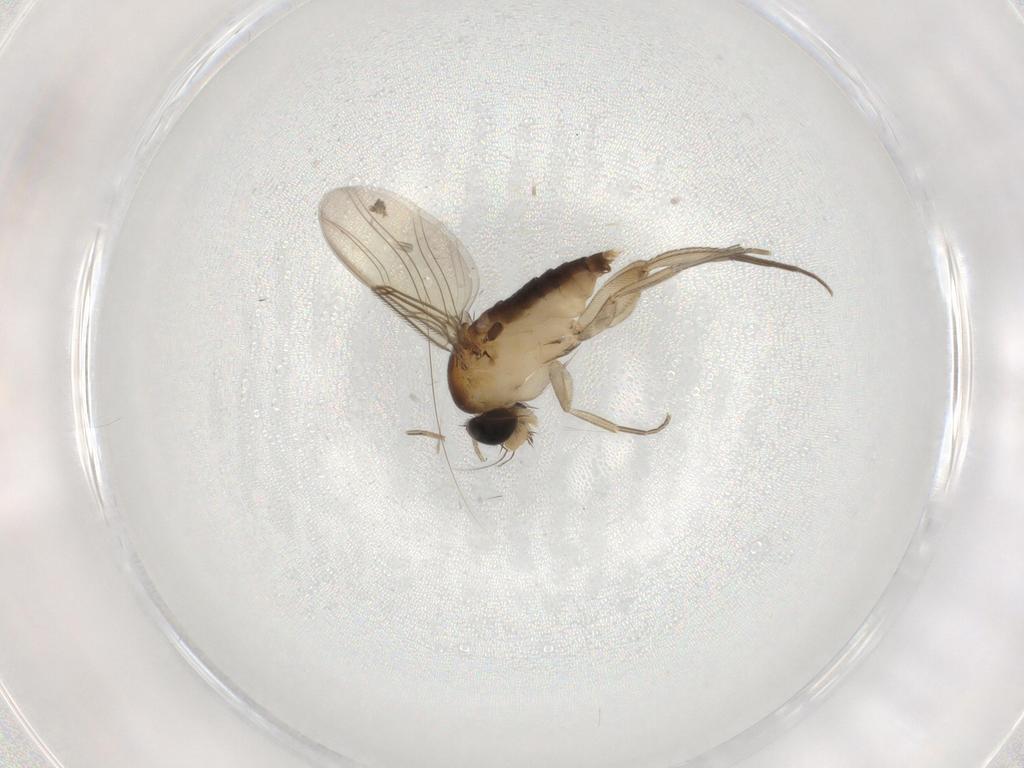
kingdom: Animalia
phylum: Arthropoda
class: Insecta
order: Diptera
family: Phoridae
